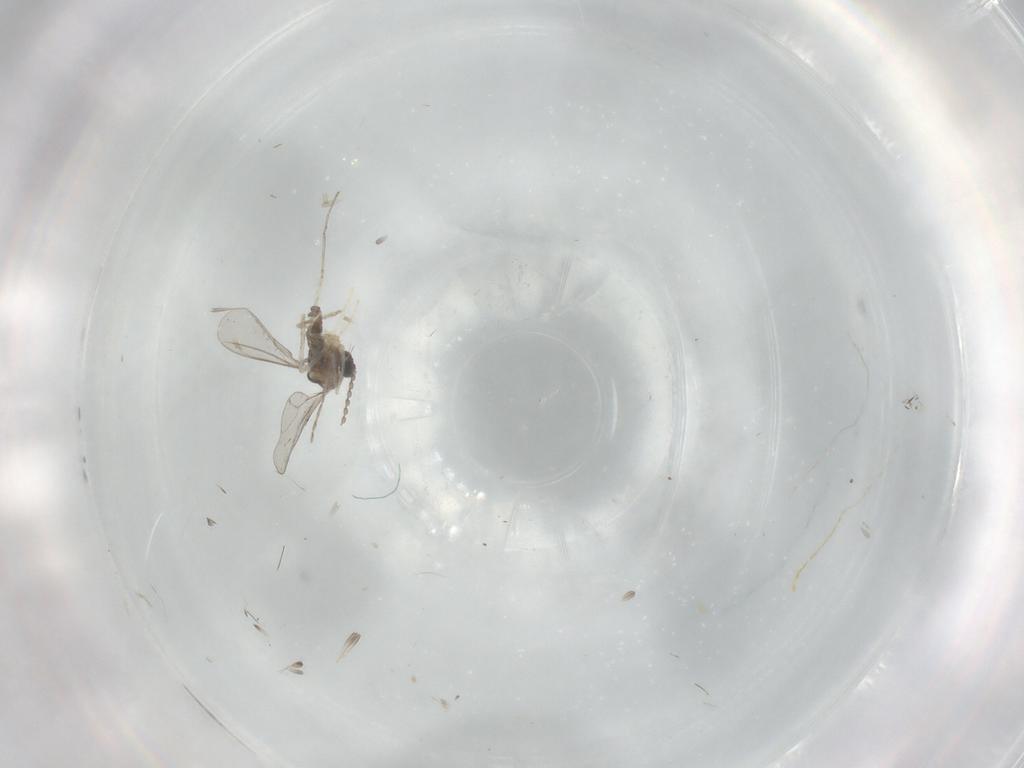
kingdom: Animalia
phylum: Arthropoda
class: Insecta
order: Diptera
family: Cecidomyiidae
